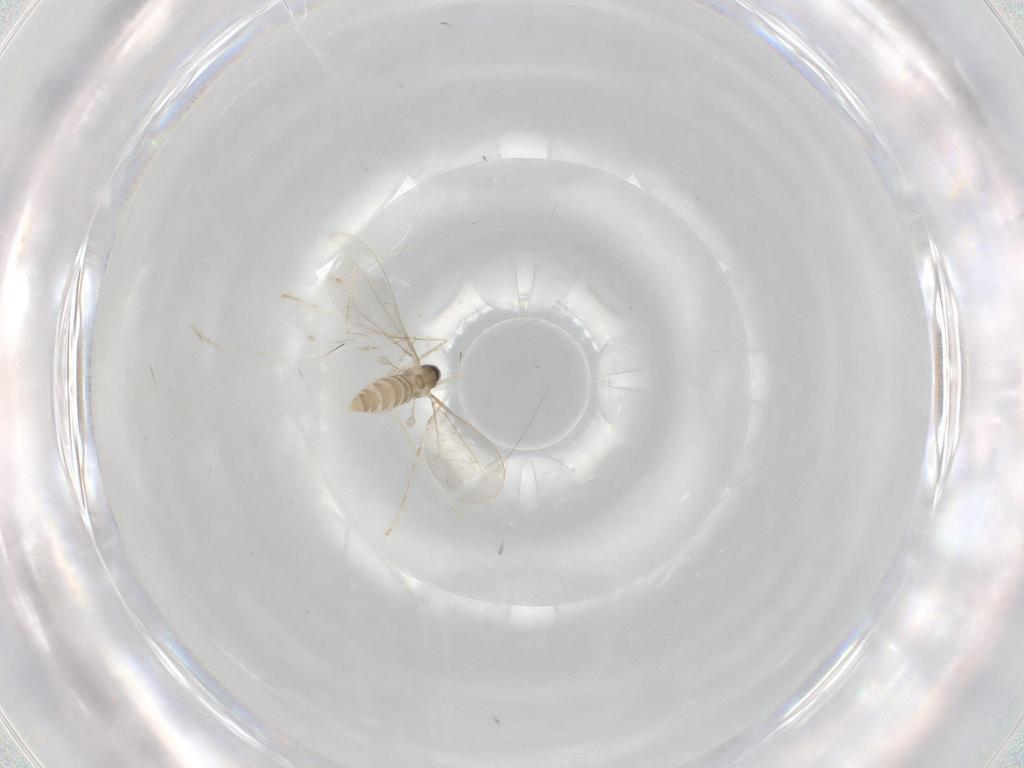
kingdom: Animalia
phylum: Arthropoda
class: Insecta
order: Diptera
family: Cecidomyiidae
